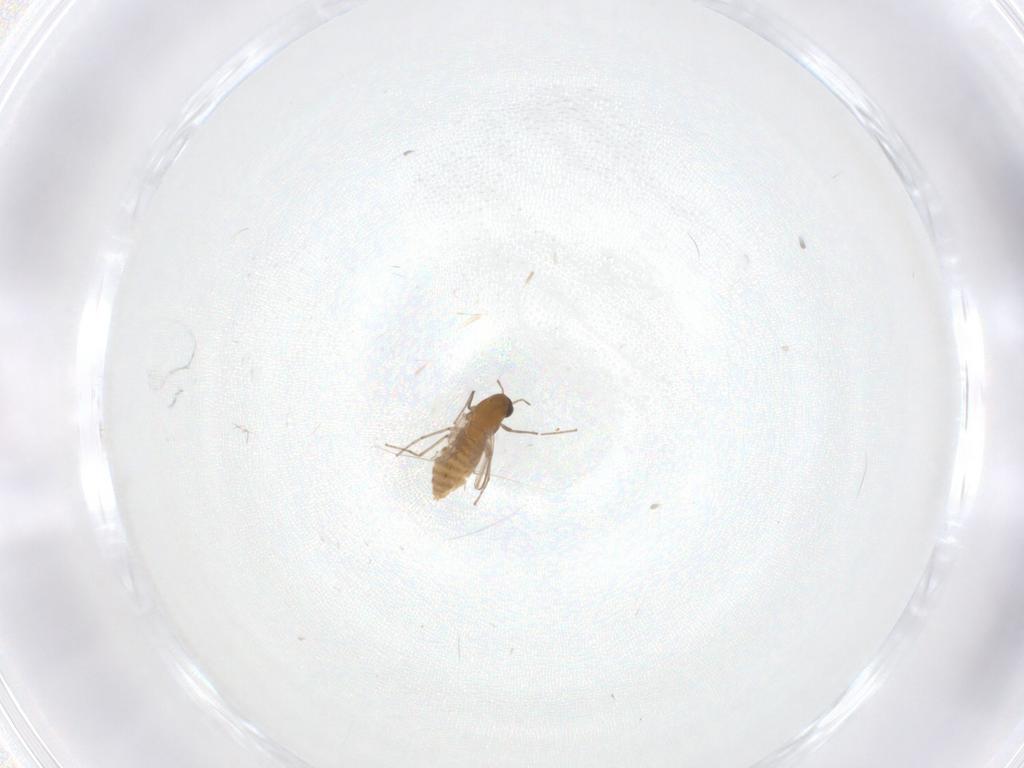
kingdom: Animalia
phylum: Arthropoda
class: Insecta
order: Diptera
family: Chironomidae
